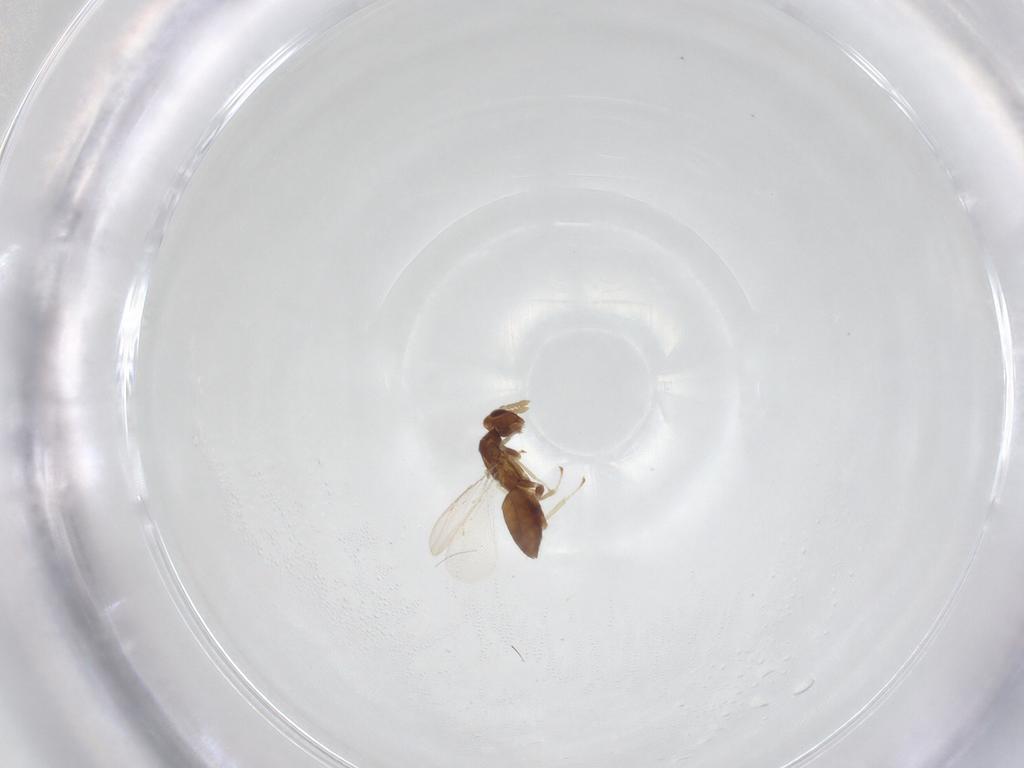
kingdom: Animalia
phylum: Arthropoda
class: Insecta
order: Hymenoptera
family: Eulophidae
